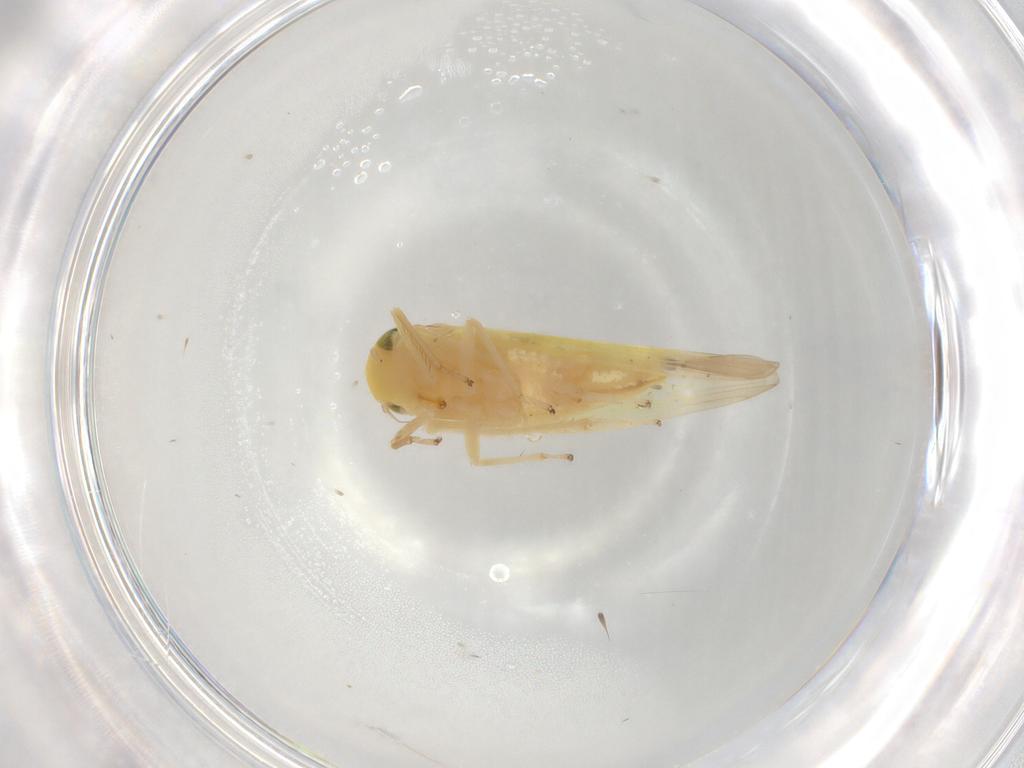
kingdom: Animalia
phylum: Arthropoda
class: Insecta
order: Hemiptera
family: Cicadellidae
